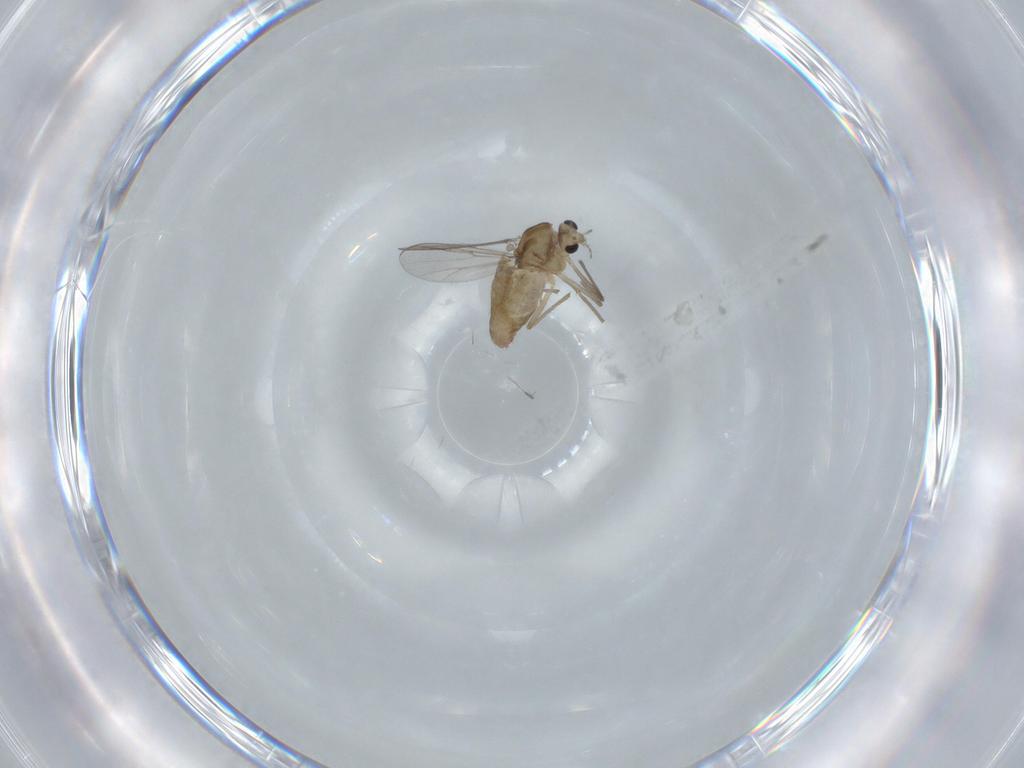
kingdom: Animalia
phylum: Arthropoda
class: Insecta
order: Diptera
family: Chironomidae
